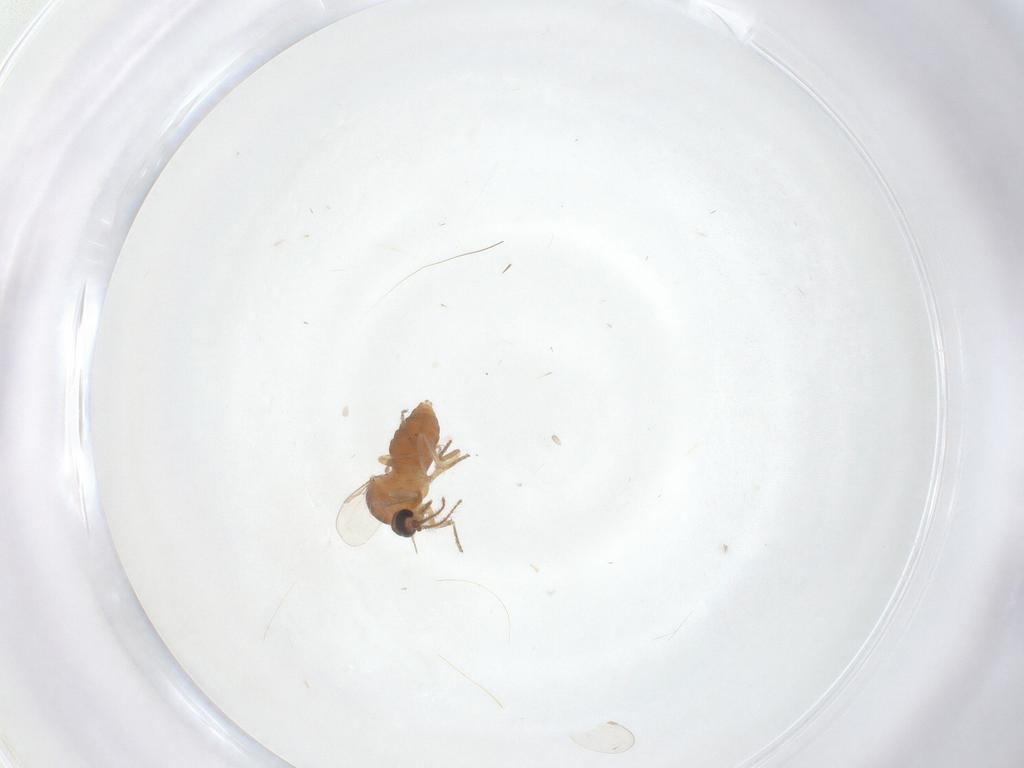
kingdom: Animalia
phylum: Arthropoda
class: Insecta
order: Diptera
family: Ceratopogonidae
